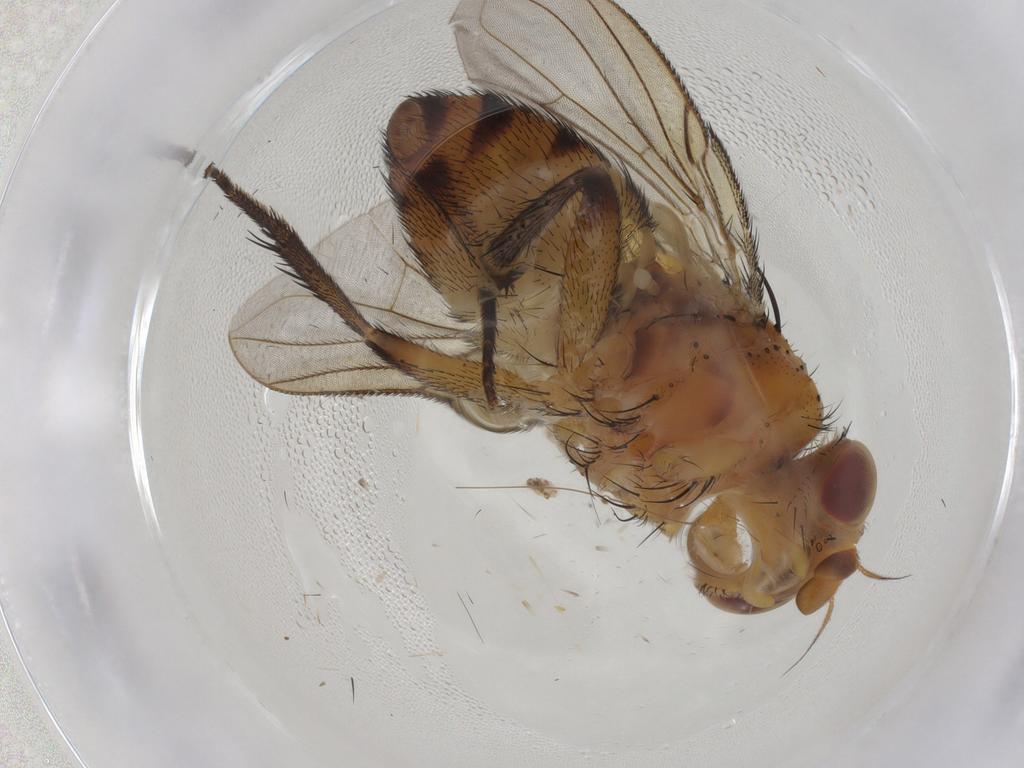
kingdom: Animalia
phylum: Arthropoda
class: Insecta
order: Diptera
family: Tachinidae
